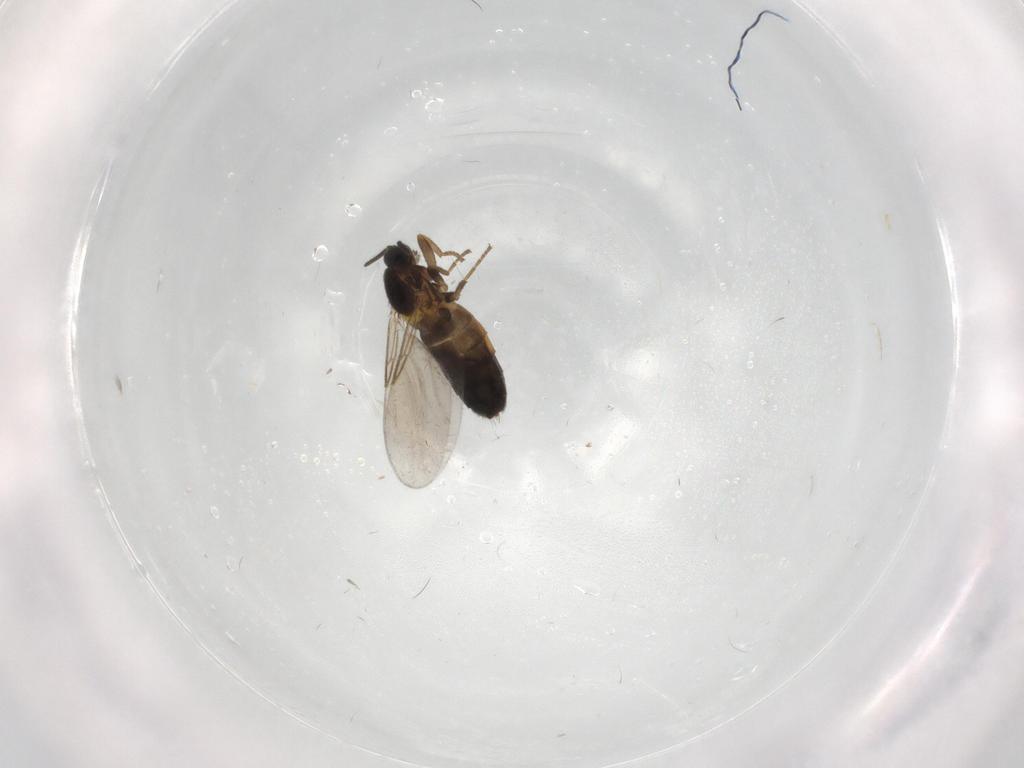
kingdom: Animalia
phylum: Arthropoda
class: Insecta
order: Diptera
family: Scatopsidae
